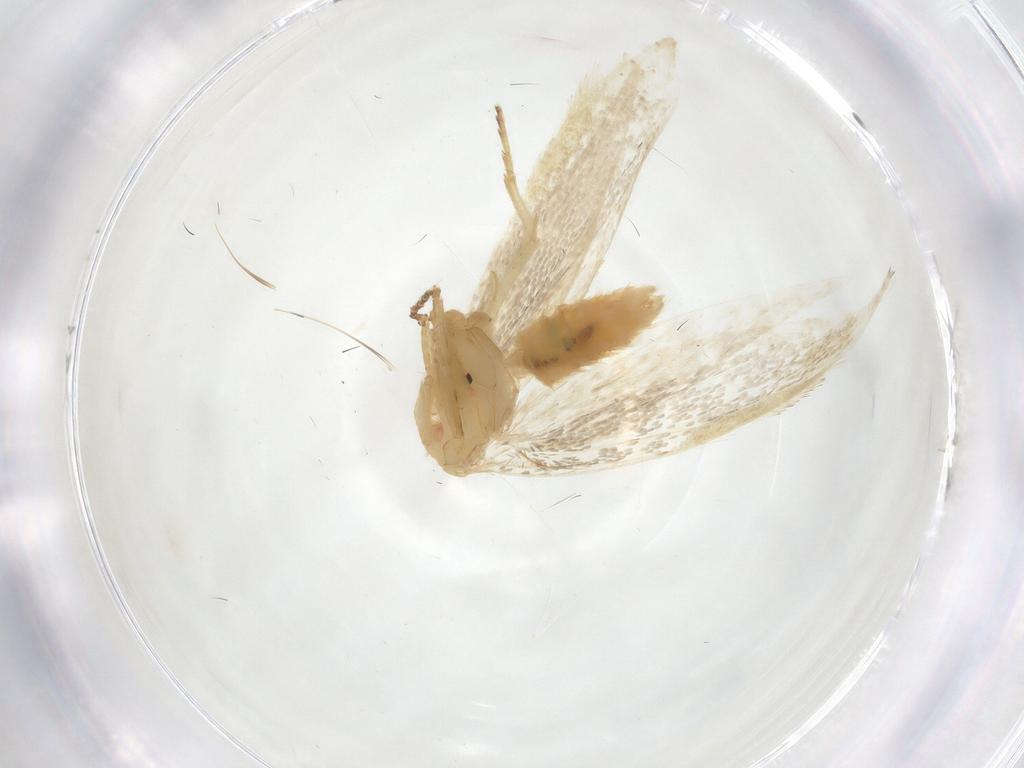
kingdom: Animalia
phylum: Arthropoda
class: Insecta
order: Lepidoptera
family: Argyresthiidae
